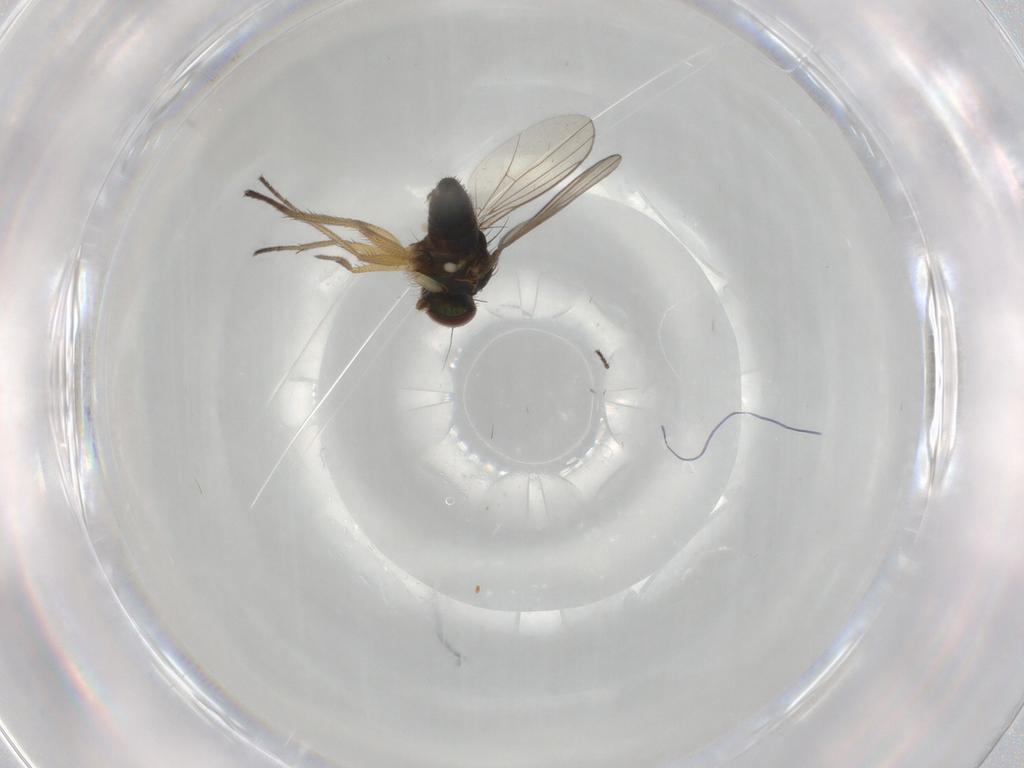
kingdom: Animalia
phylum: Arthropoda
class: Insecta
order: Diptera
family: Dolichopodidae
